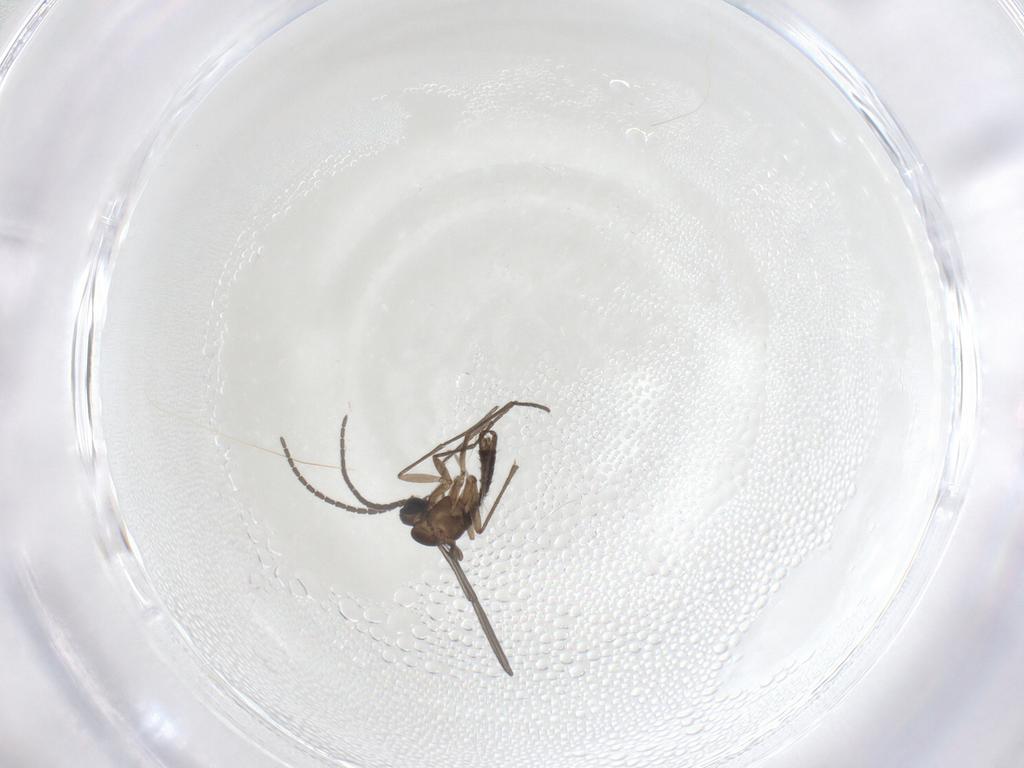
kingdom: Animalia
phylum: Arthropoda
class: Insecta
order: Diptera
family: Sciaridae
